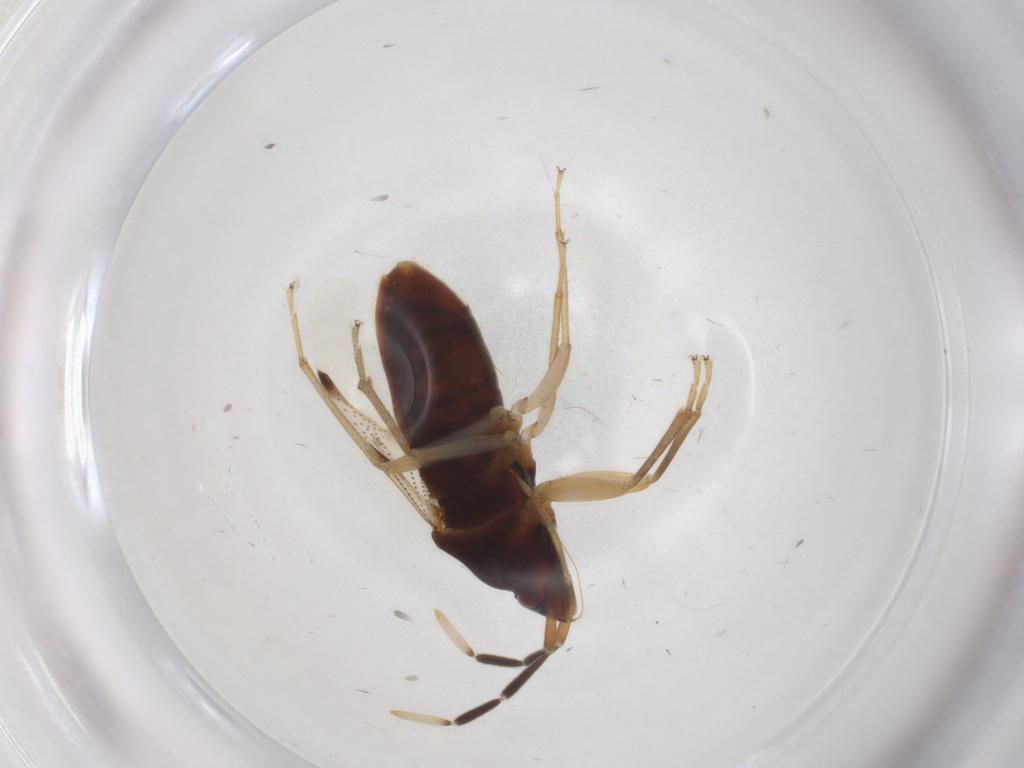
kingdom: Animalia
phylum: Arthropoda
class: Insecta
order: Hemiptera
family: Rhyparochromidae
